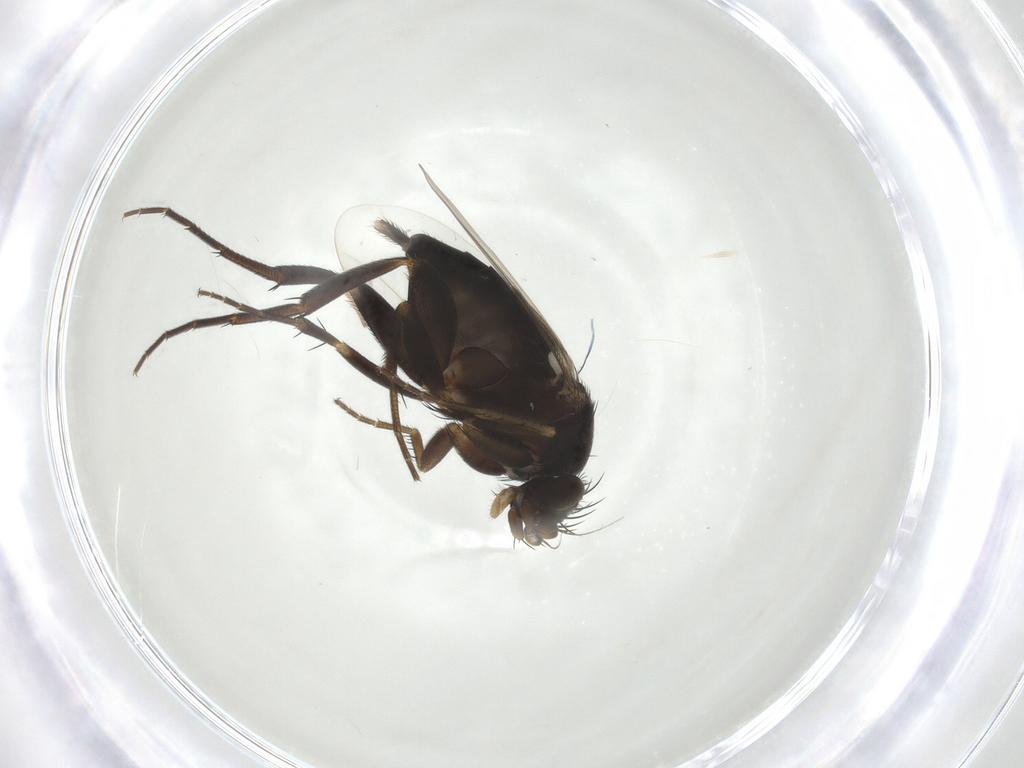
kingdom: Animalia
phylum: Arthropoda
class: Insecta
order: Diptera
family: Phoridae
